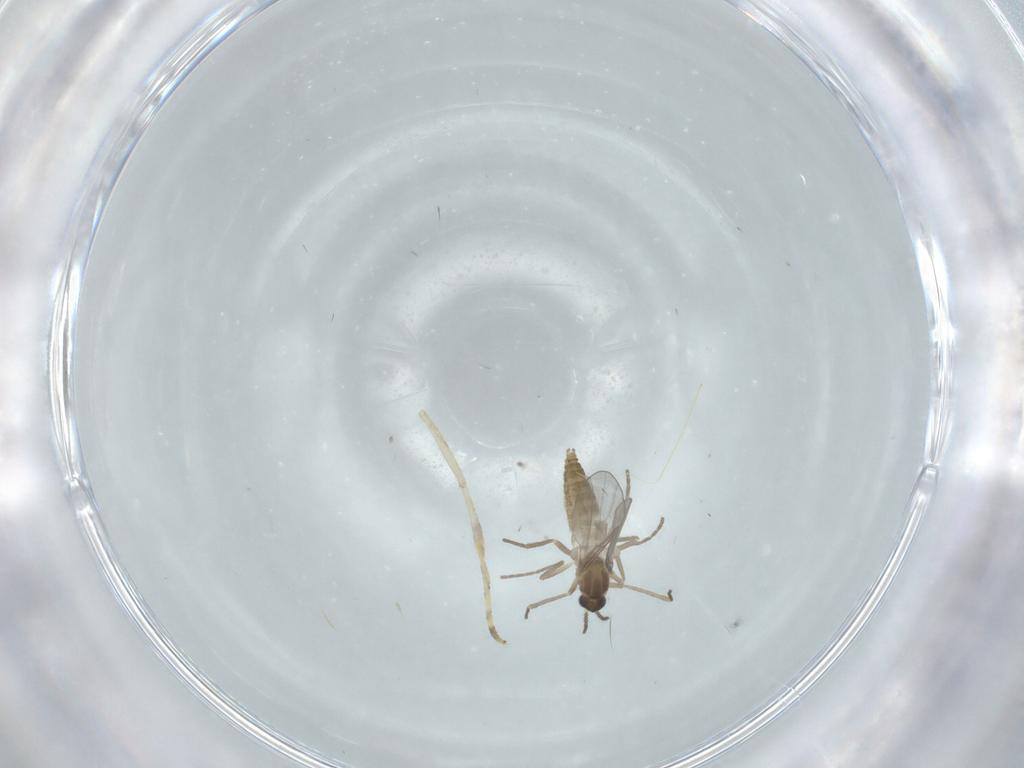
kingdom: Animalia
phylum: Arthropoda
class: Insecta
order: Diptera
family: Cecidomyiidae
